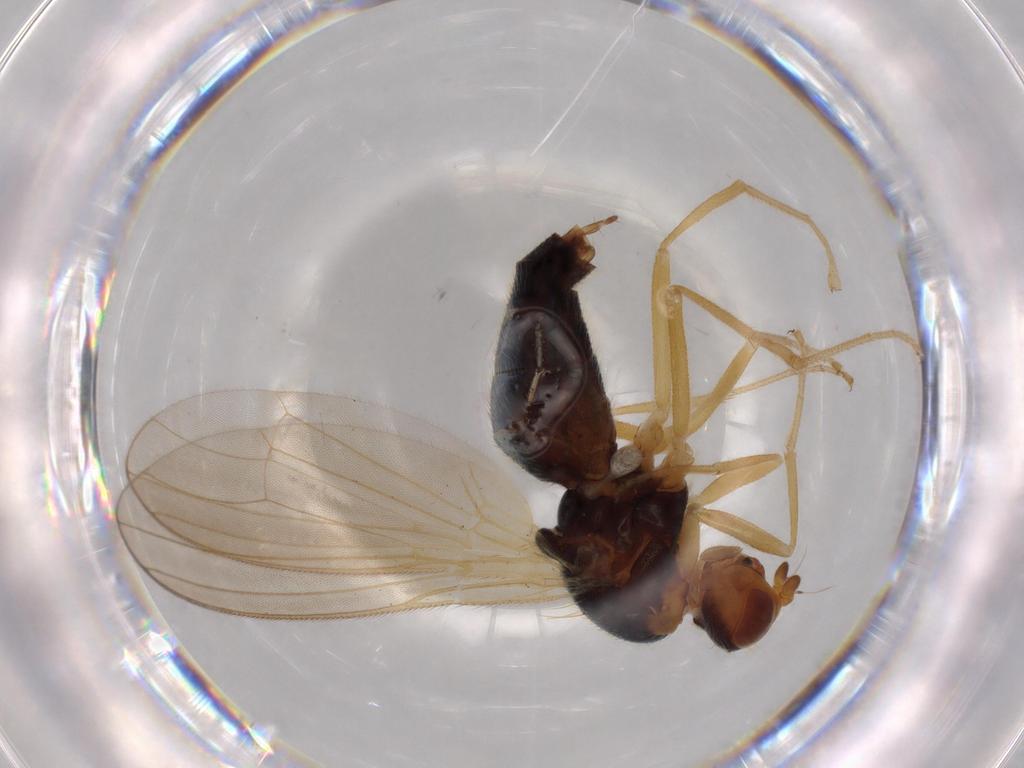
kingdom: Animalia
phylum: Arthropoda
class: Insecta
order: Diptera
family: Psilidae
